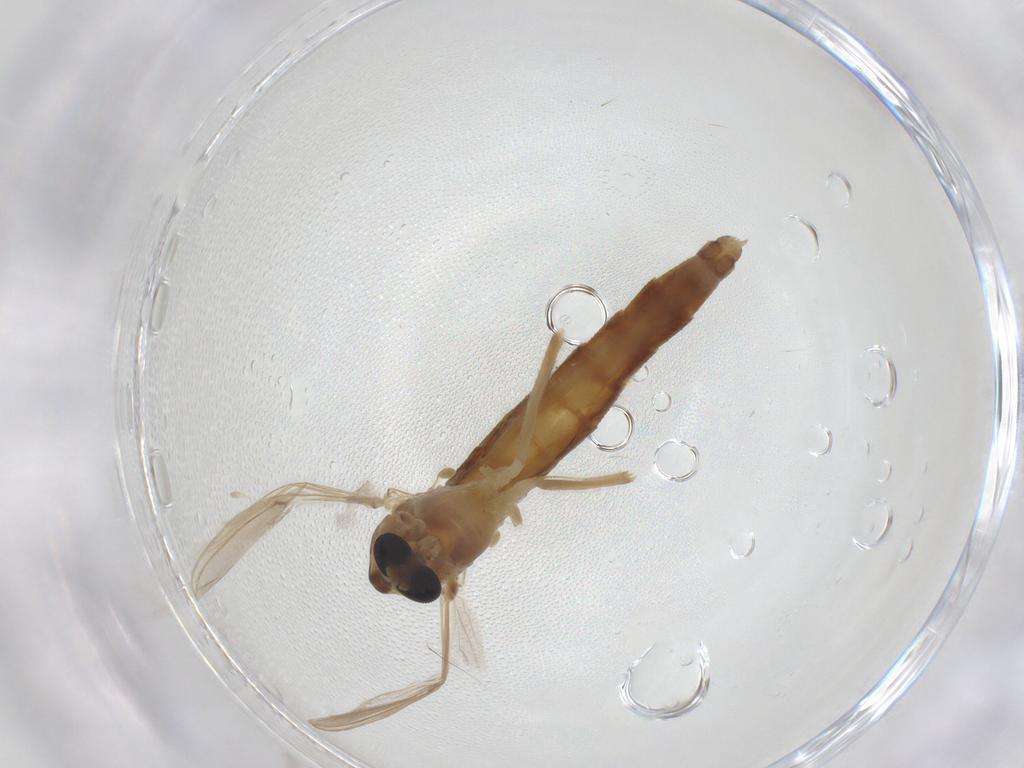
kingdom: Animalia
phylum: Arthropoda
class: Insecta
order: Diptera
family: Chironomidae
